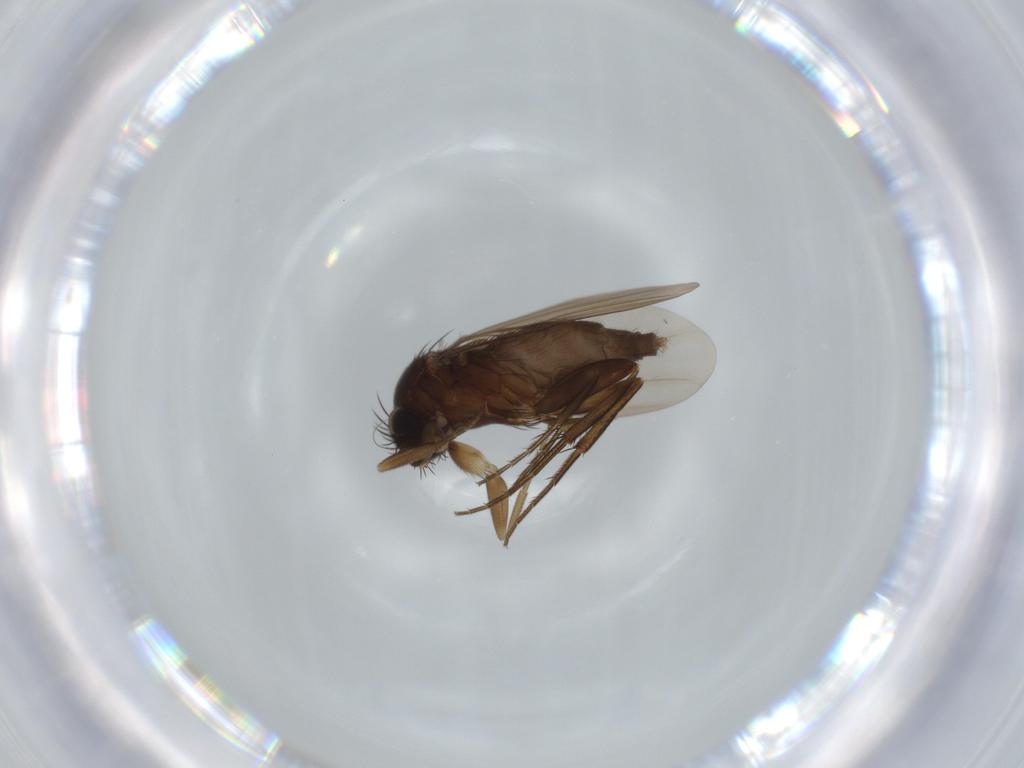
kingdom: Animalia
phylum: Arthropoda
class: Insecta
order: Diptera
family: Phoridae
